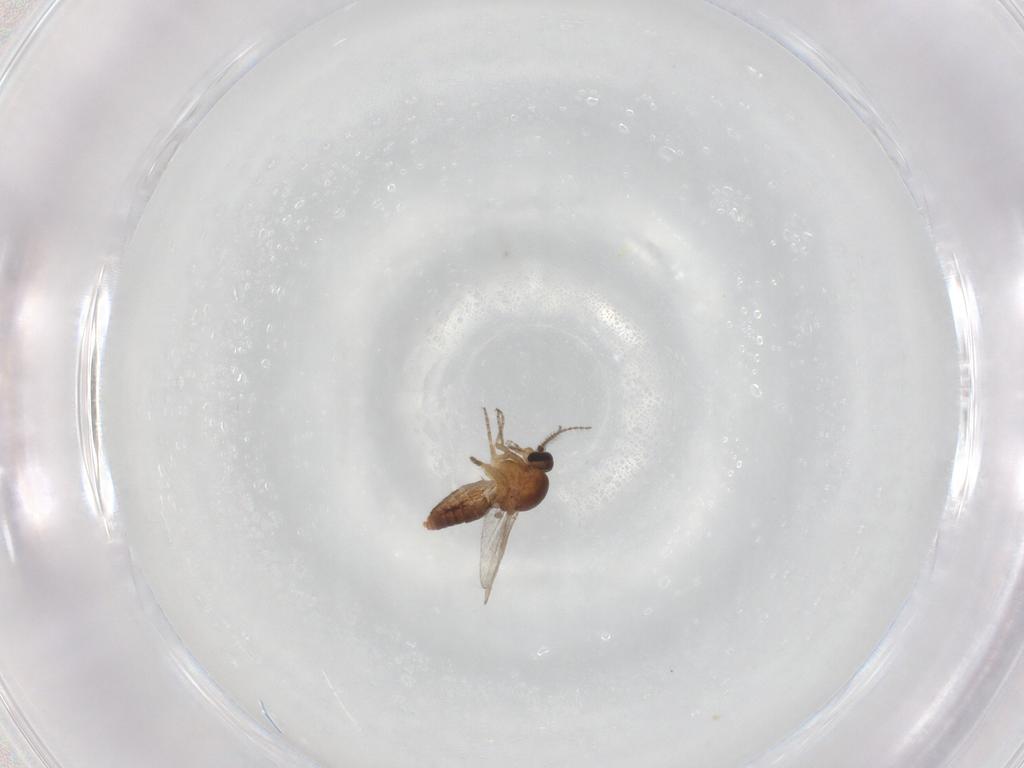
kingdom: Animalia
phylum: Arthropoda
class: Insecta
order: Diptera
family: Ceratopogonidae
